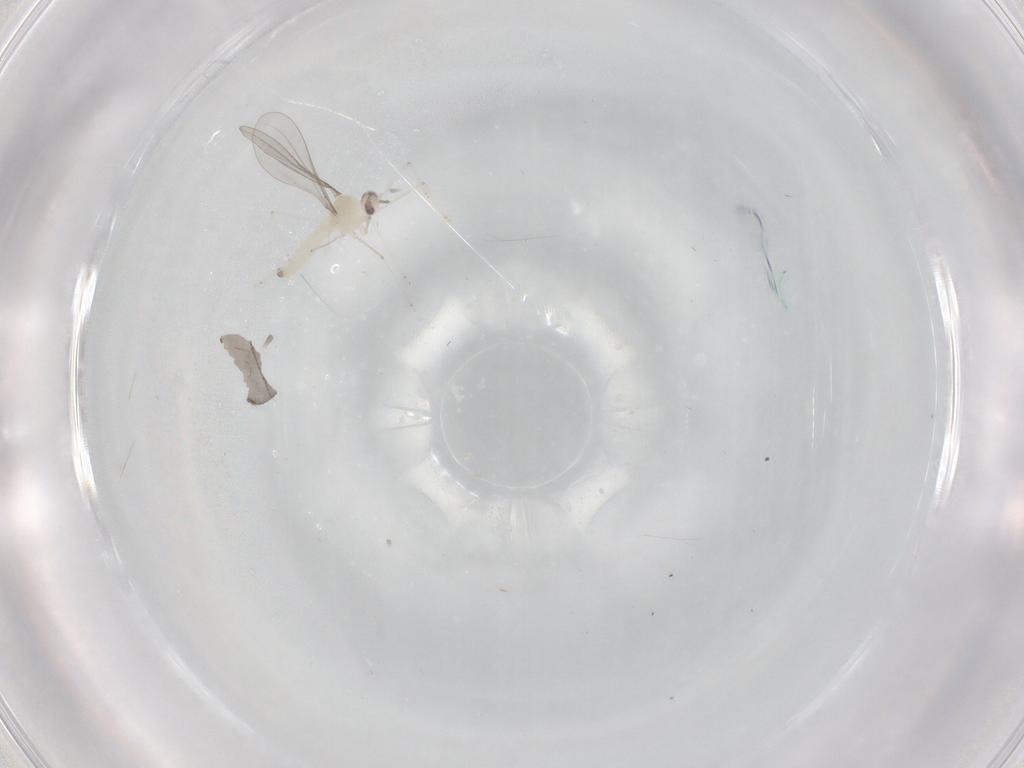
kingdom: Animalia
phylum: Arthropoda
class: Insecta
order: Diptera
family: Cecidomyiidae
